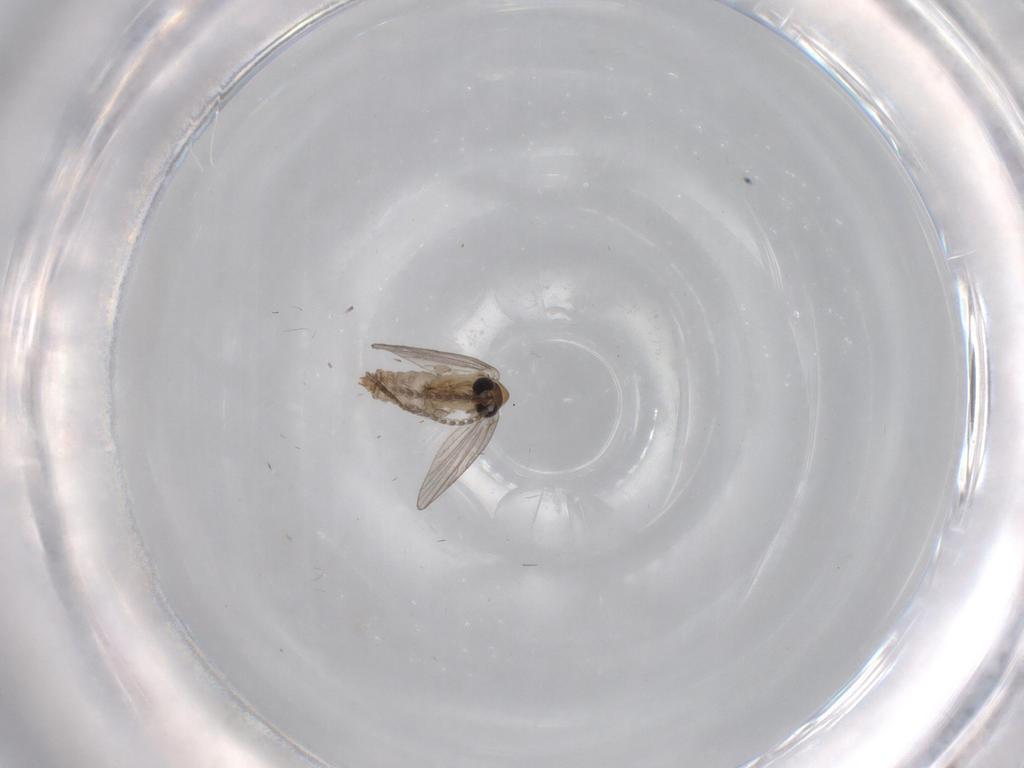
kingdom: Animalia
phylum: Arthropoda
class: Insecta
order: Diptera
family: Psychodidae
